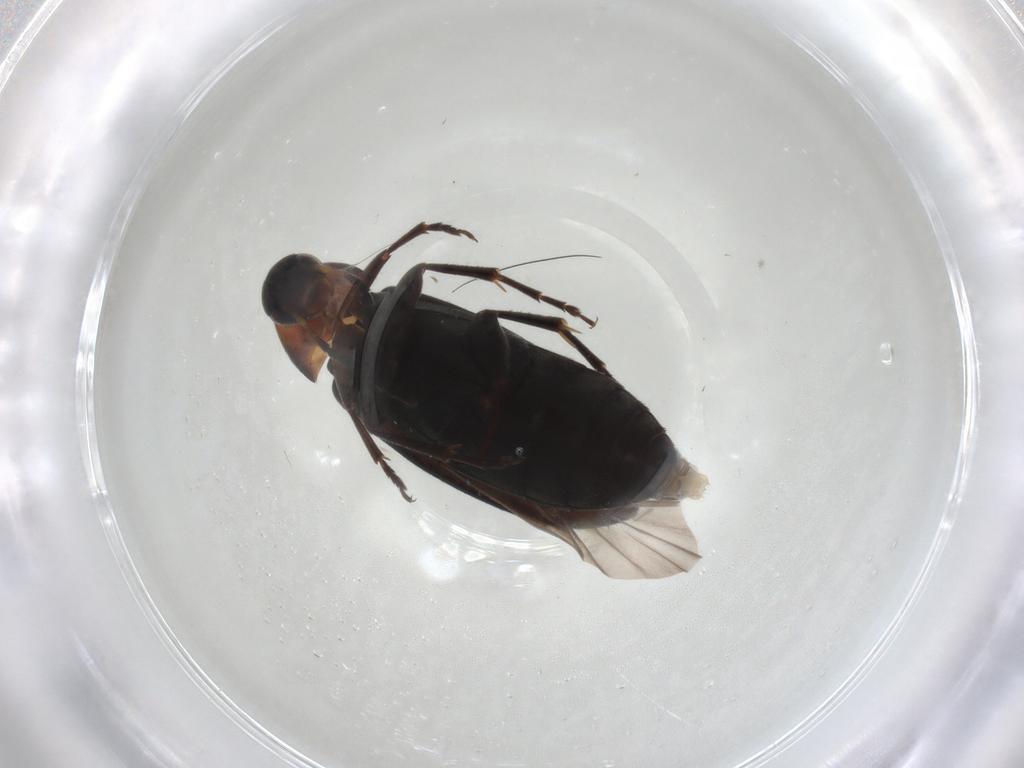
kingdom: Animalia
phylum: Arthropoda
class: Insecta
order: Coleoptera
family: Scraptiidae
